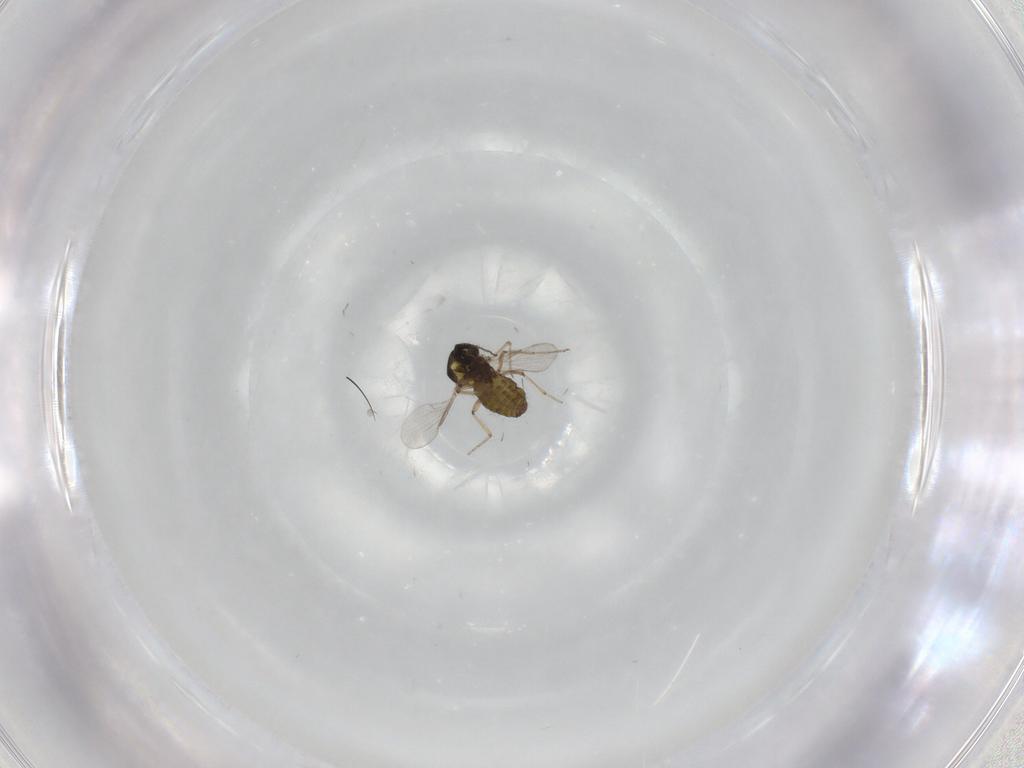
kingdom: Animalia
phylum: Arthropoda
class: Insecta
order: Diptera
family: Ceratopogonidae
